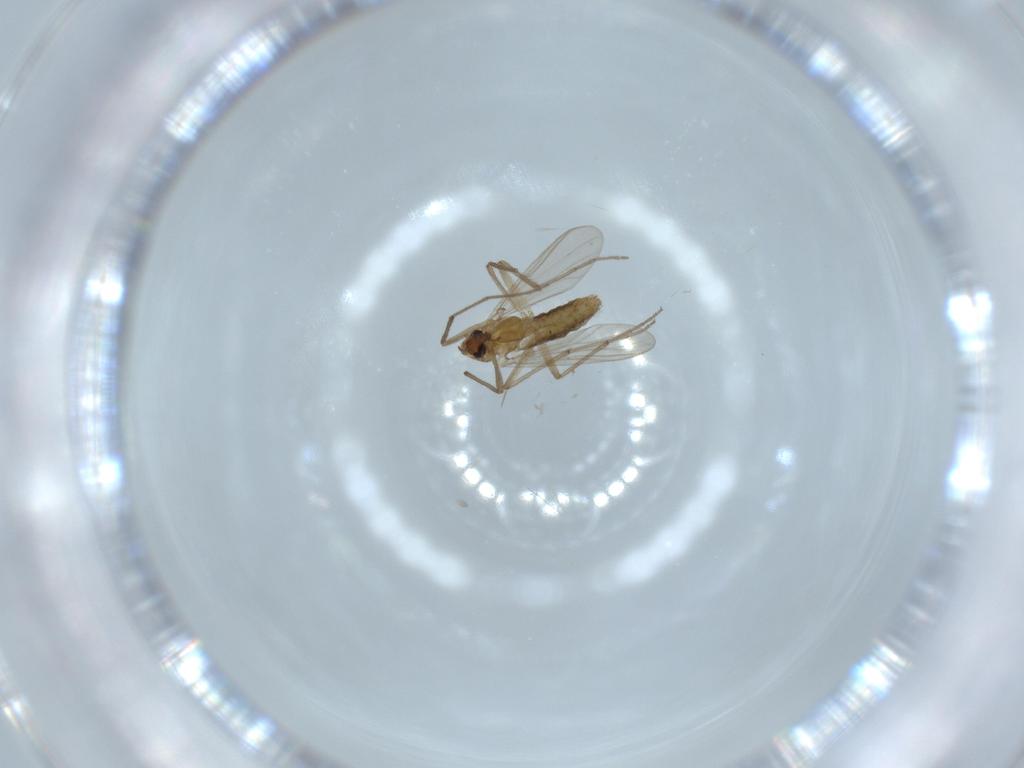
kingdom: Animalia
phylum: Arthropoda
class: Insecta
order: Diptera
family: Chironomidae
